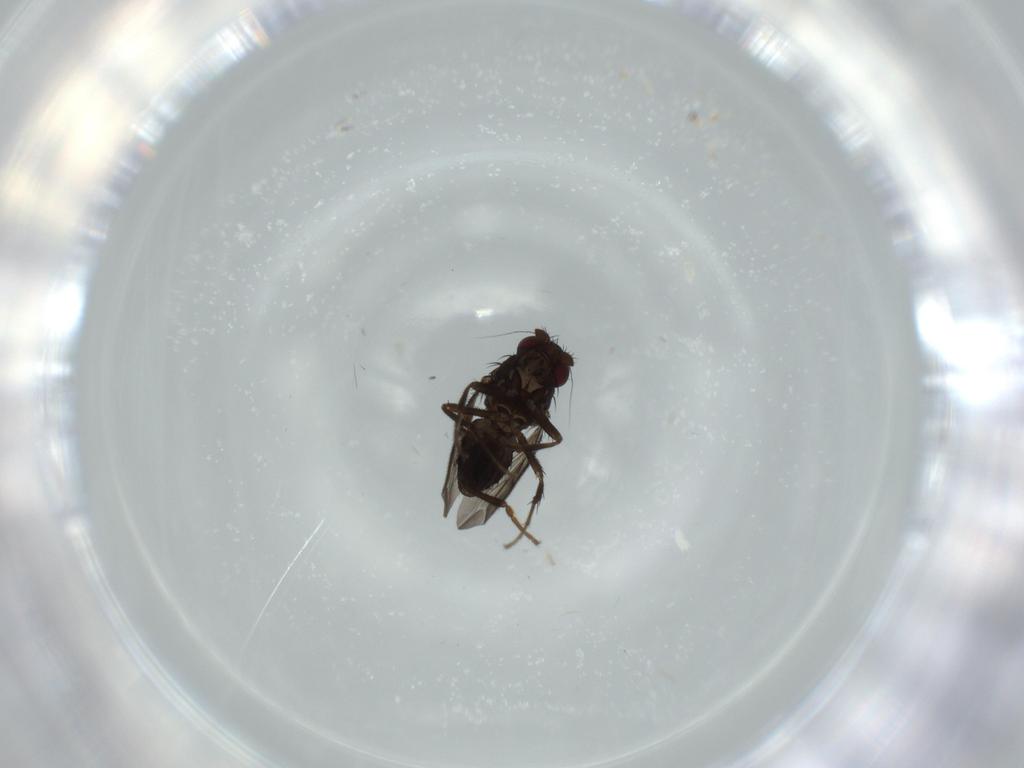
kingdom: Animalia
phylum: Arthropoda
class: Insecta
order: Diptera
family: Sphaeroceridae
